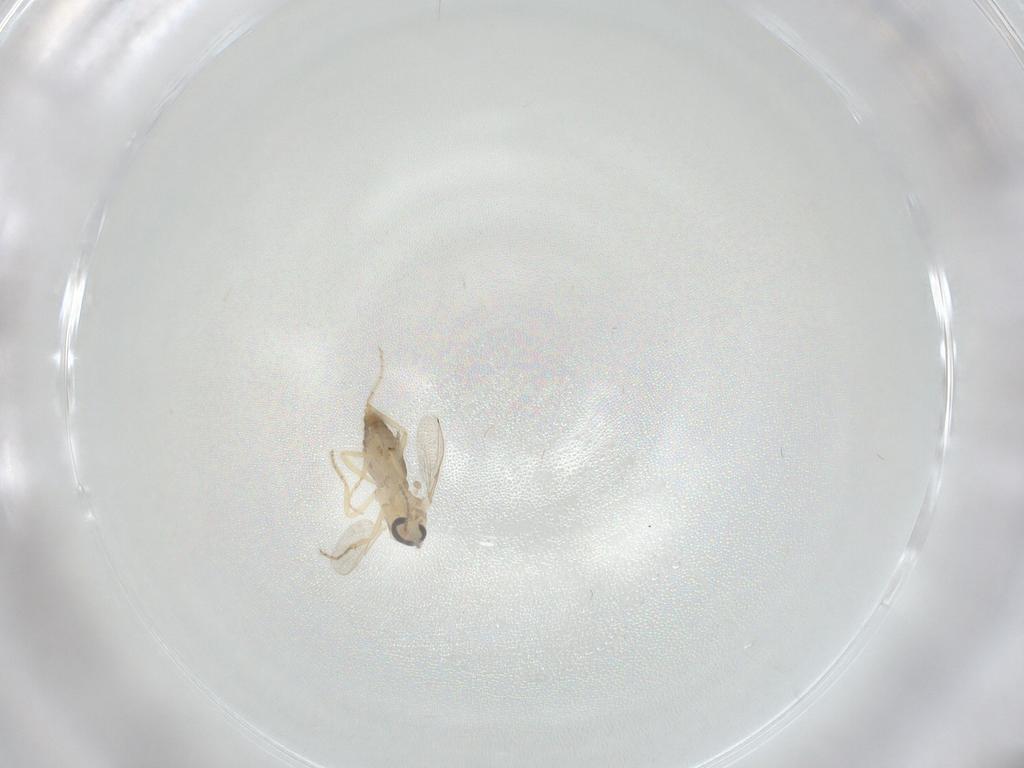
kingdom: Animalia
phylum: Arthropoda
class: Insecta
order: Diptera
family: Ceratopogonidae
